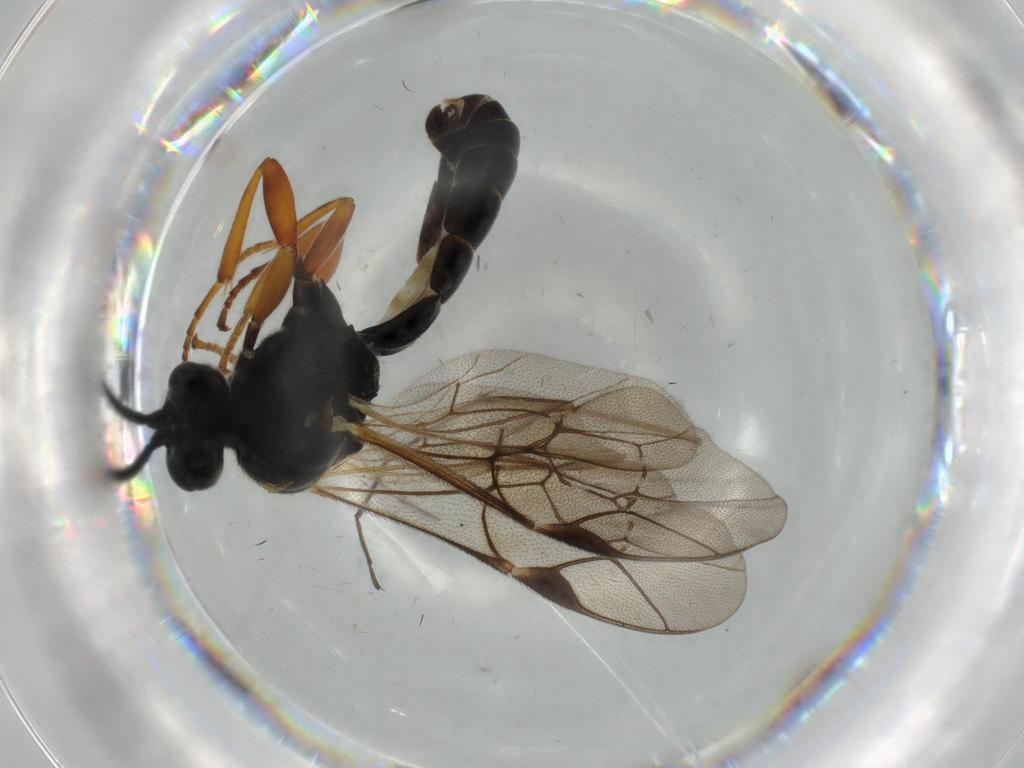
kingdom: Animalia
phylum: Arthropoda
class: Insecta
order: Hymenoptera
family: Ichneumonidae
